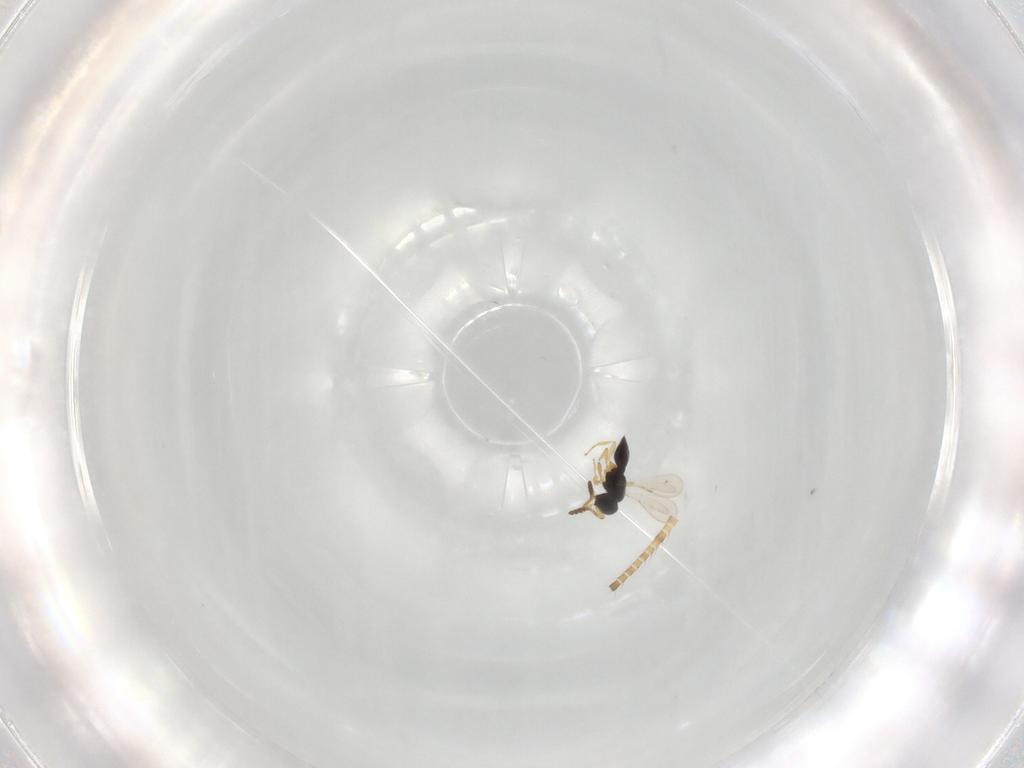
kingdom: Animalia
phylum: Arthropoda
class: Insecta
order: Hymenoptera
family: Scelionidae
